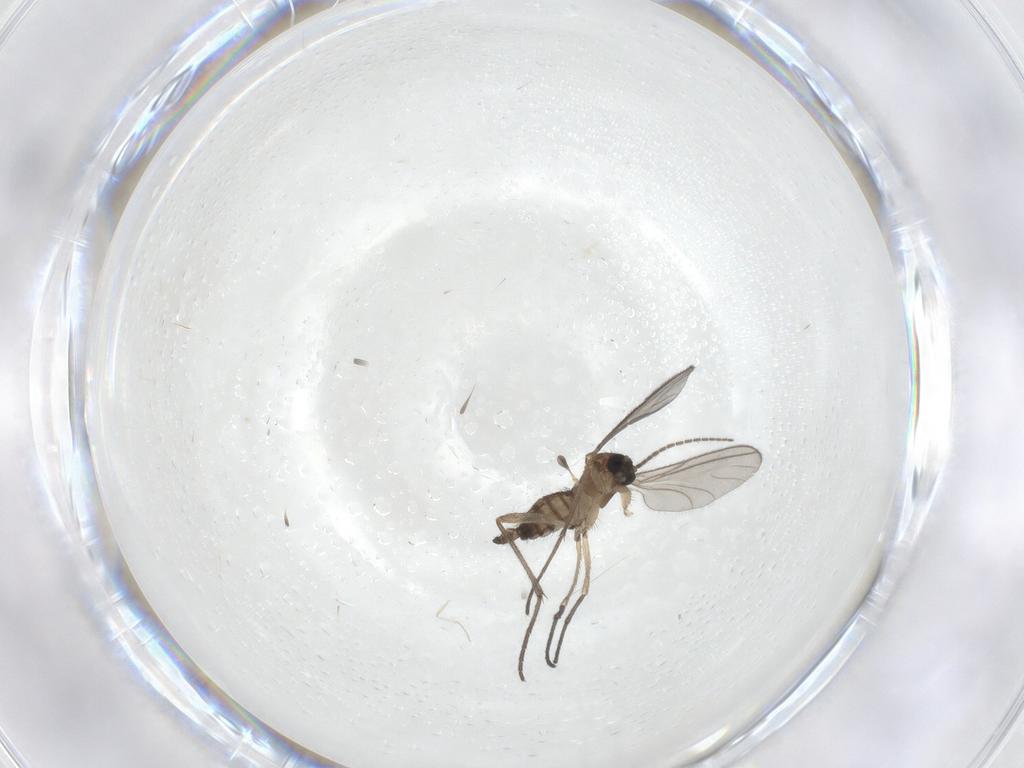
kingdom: Animalia
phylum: Arthropoda
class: Insecta
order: Diptera
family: Sciaridae
